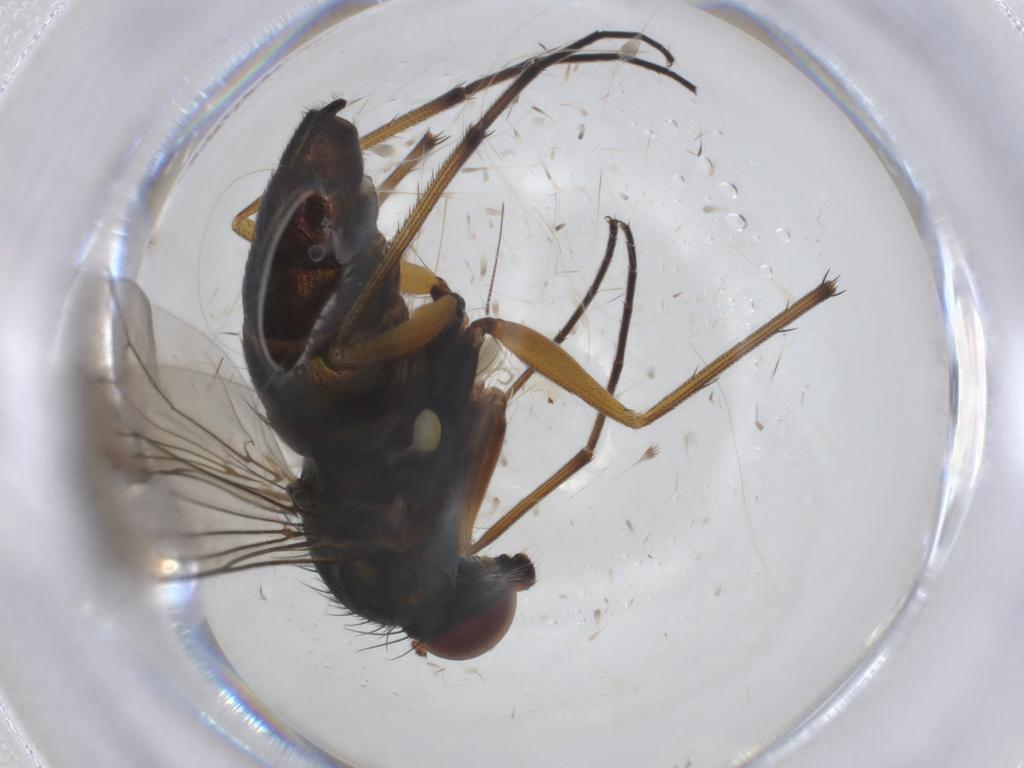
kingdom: Animalia
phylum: Arthropoda
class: Insecta
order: Diptera
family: Chironomidae
